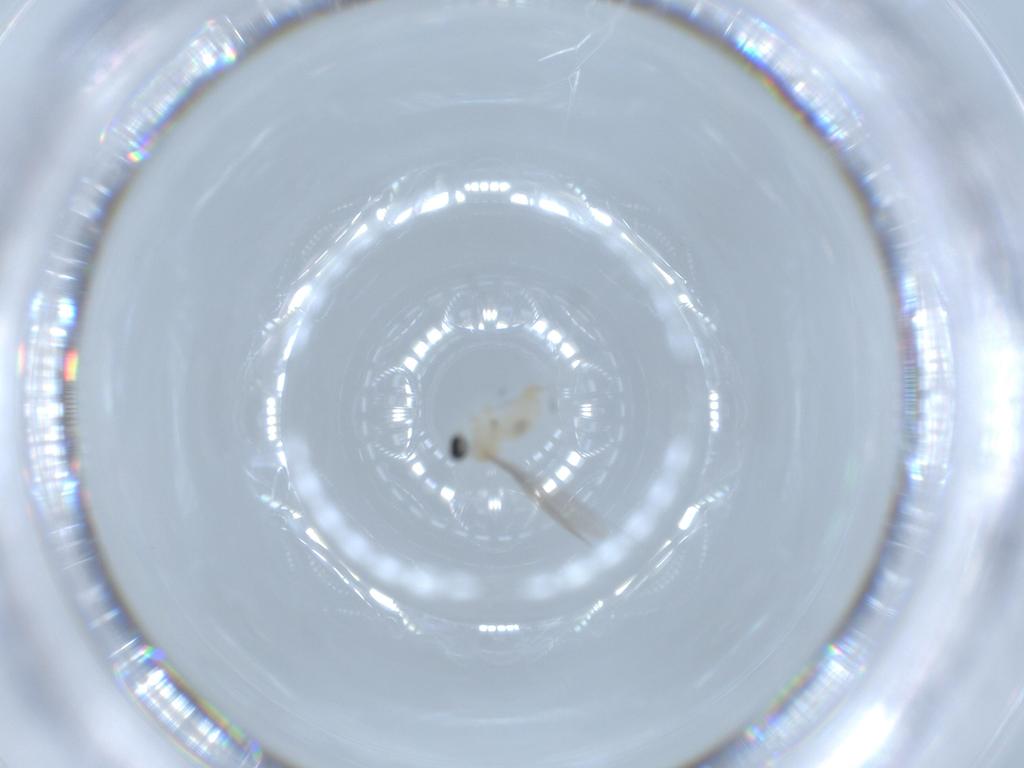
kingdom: Animalia
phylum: Arthropoda
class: Insecta
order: Diptera
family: Cecidomyiidae
